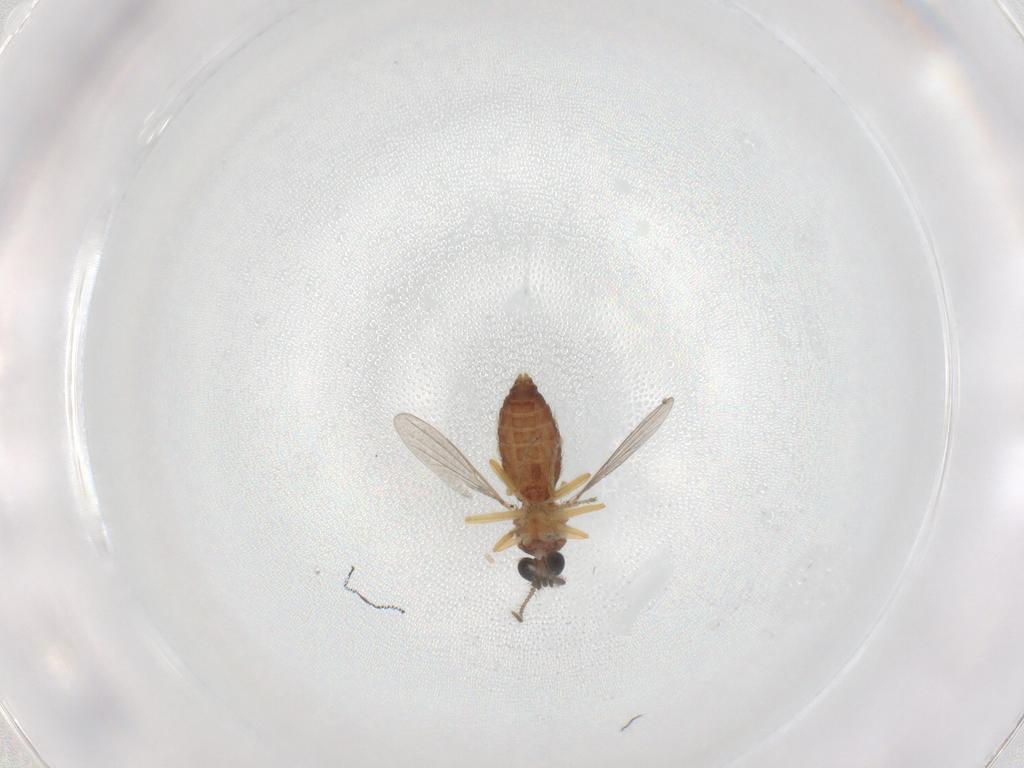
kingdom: Animalia
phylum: Arthropoda
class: Insecta
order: Diptera
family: Ceratopogonidae
